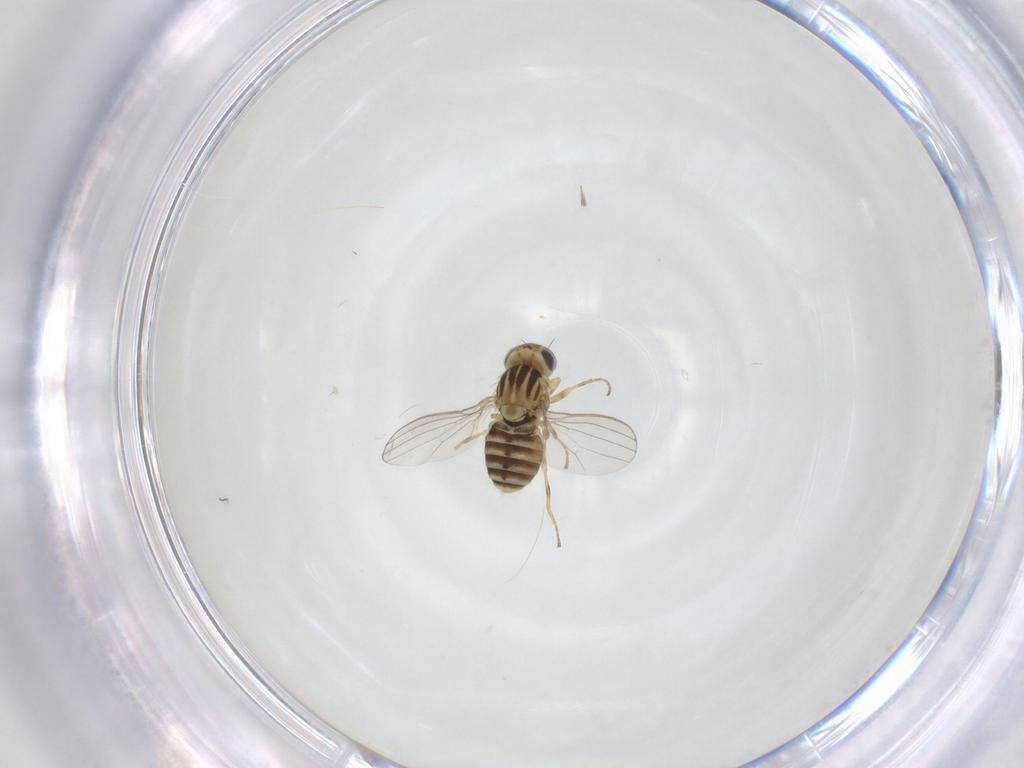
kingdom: Animalia
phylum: Arthropoda
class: Insecta
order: Diptera
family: Chyromyidae
